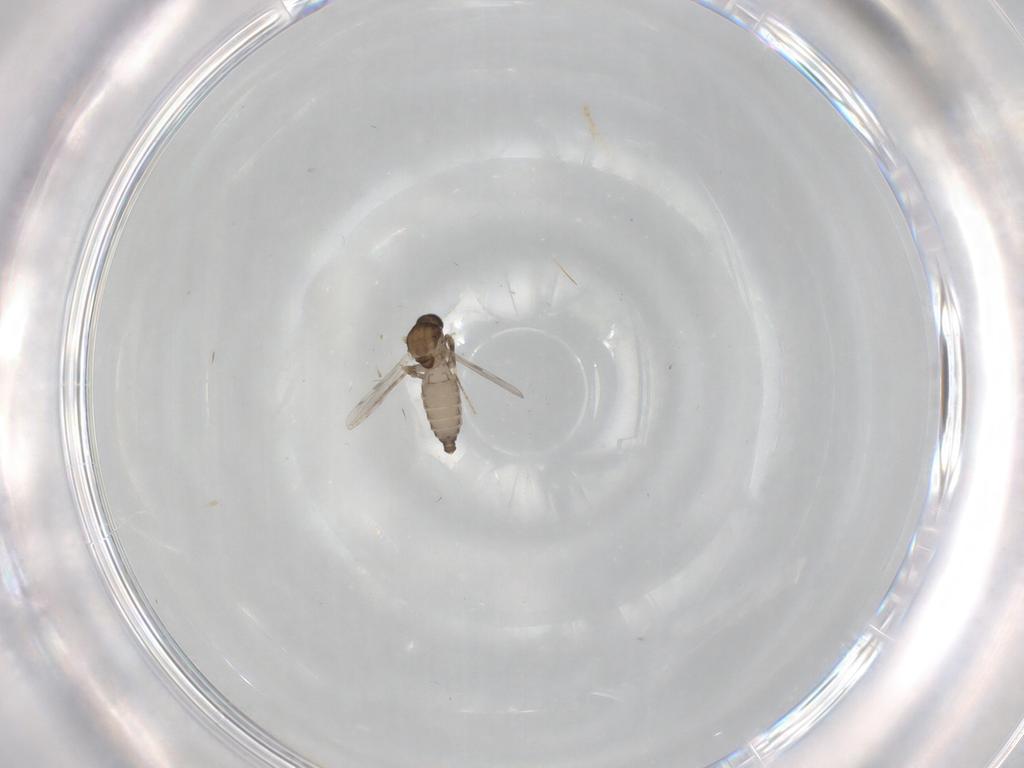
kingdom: Animalia
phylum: Arthropoda
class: Insecta
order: Diptera
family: Ceratopogonidae
